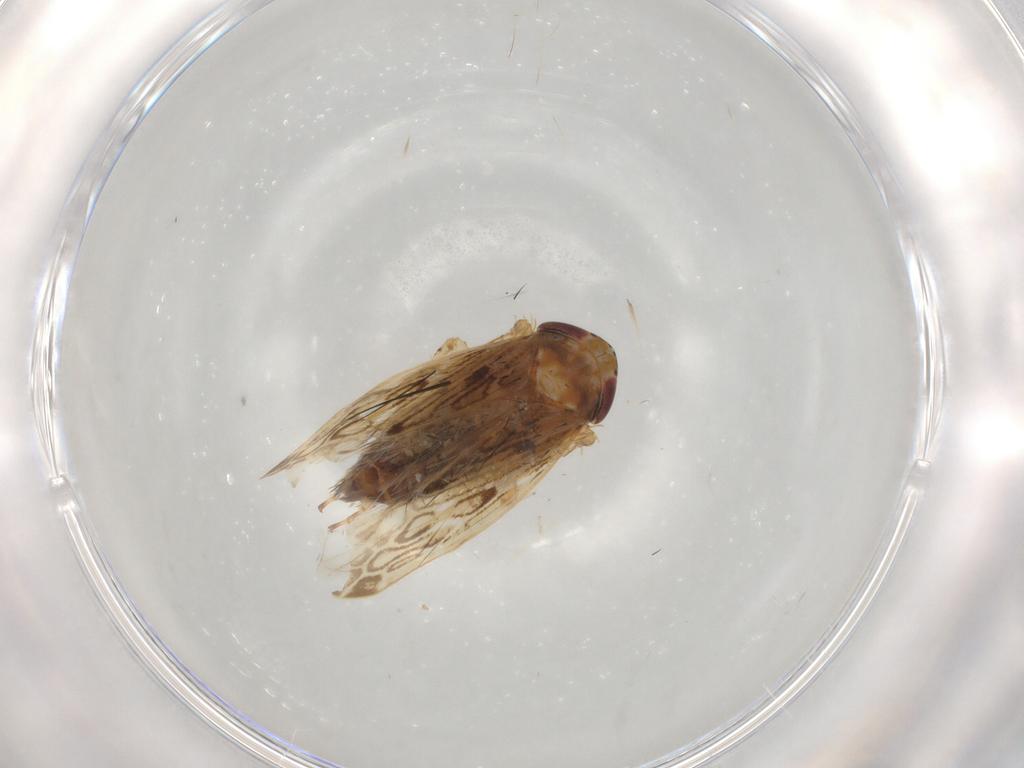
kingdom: Animalia
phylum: Arthropoda
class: Insecta
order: Hemiptera
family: Cicadellidae
